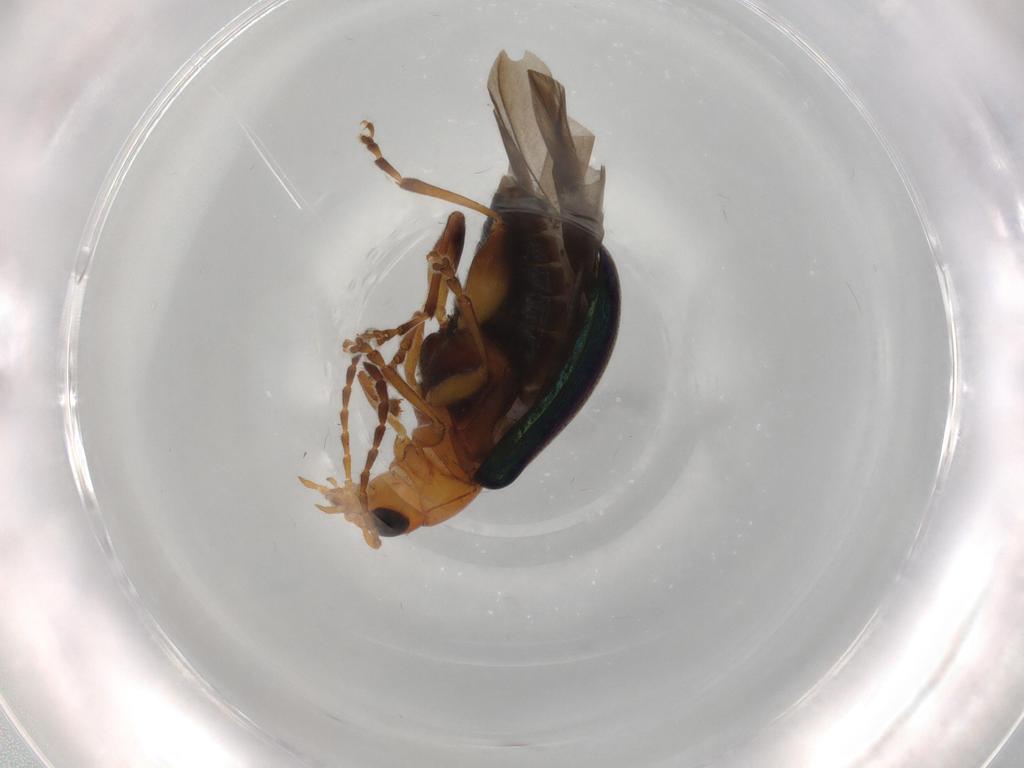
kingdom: Animalia
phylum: Arthropoda
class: Insecta
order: Coleoptera
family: Chrysomelidae
